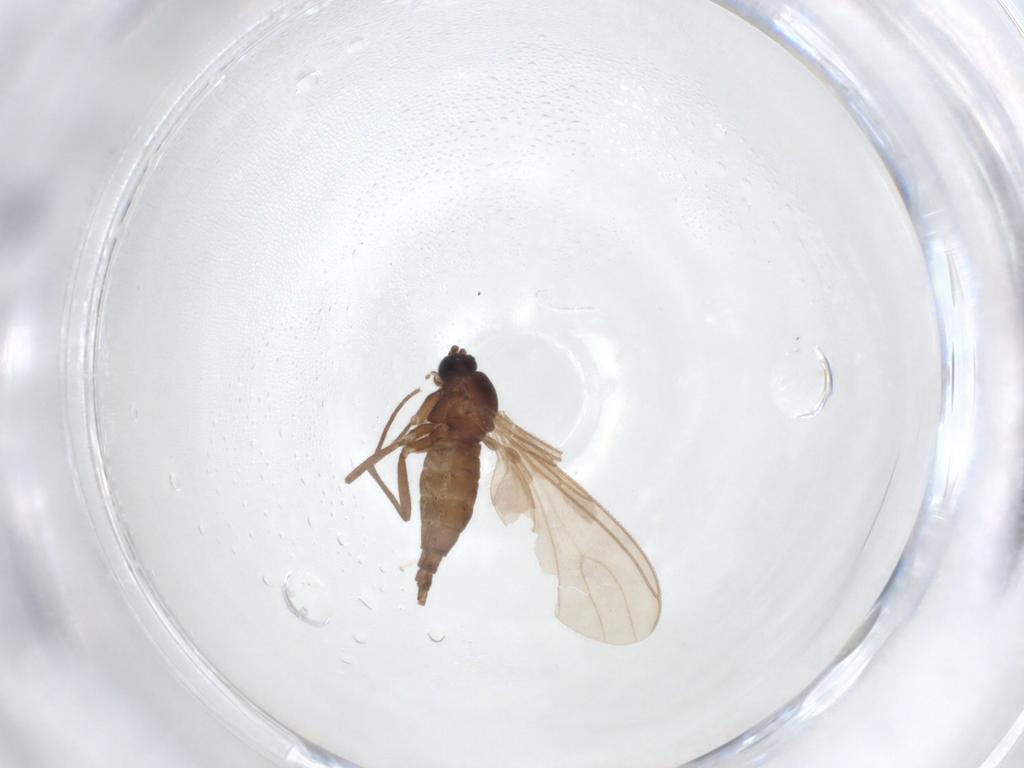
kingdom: Animalia
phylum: Arthropoda
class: Insecta
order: Diptera
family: Sciaridae
